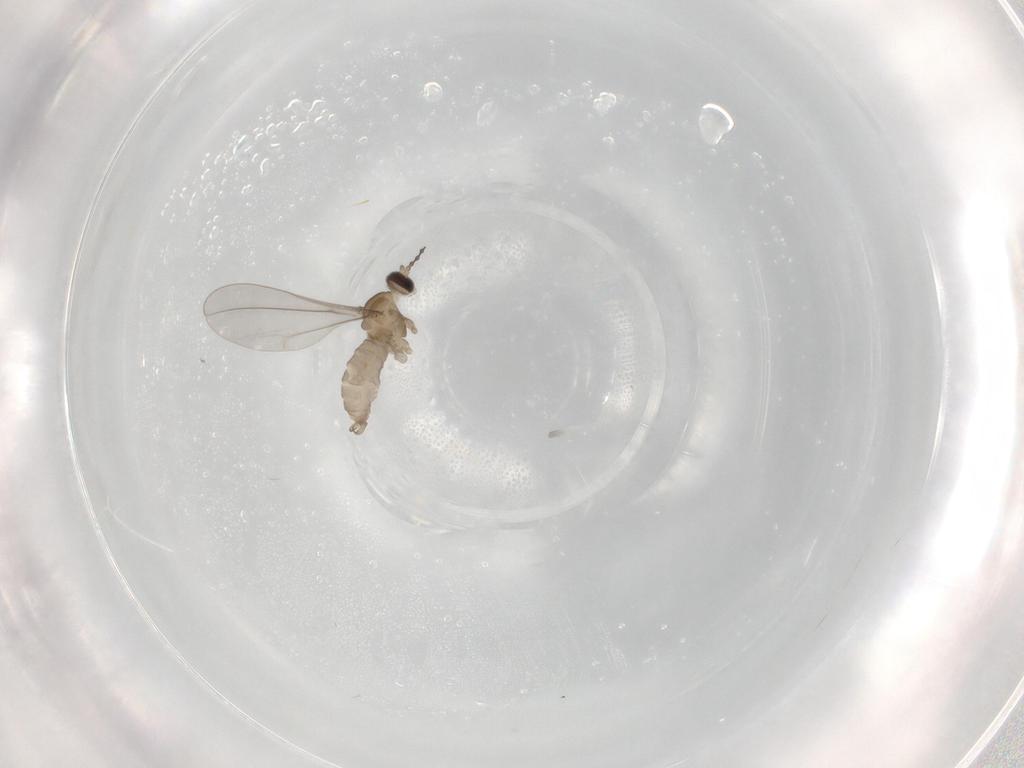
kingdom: Animalia
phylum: Arthropoda
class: Insecta
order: Diptera
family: Cecidomyiidae
